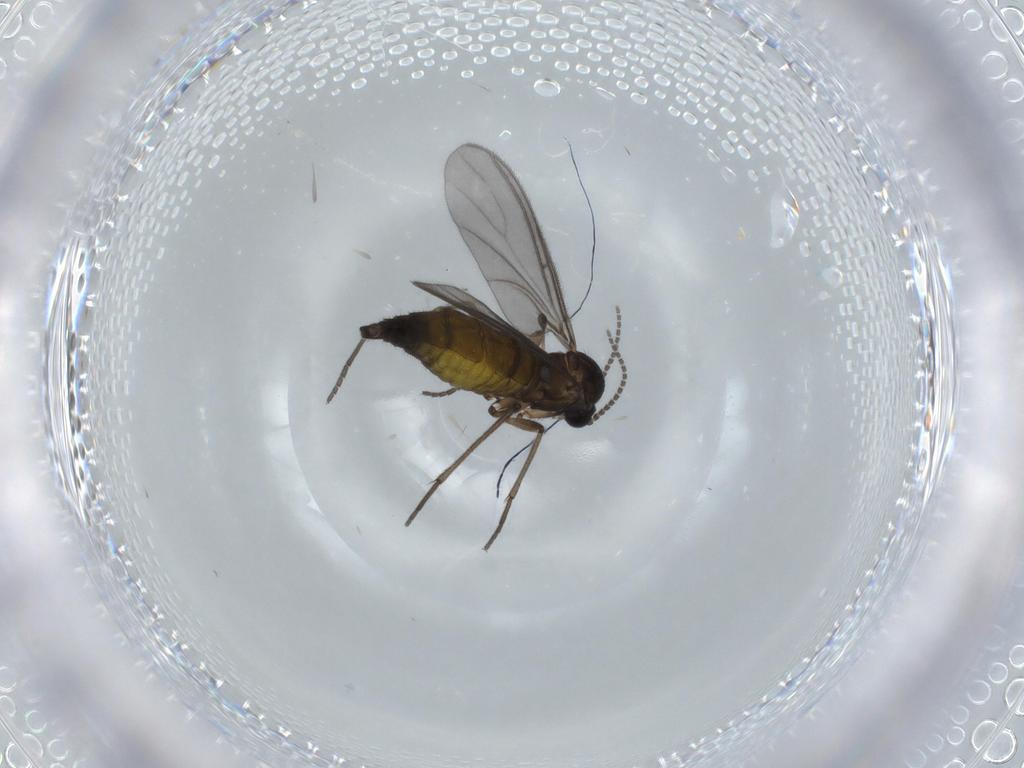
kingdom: Animalia
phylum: Arthropoda
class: Insecta
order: Diptera
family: Sciaridae
